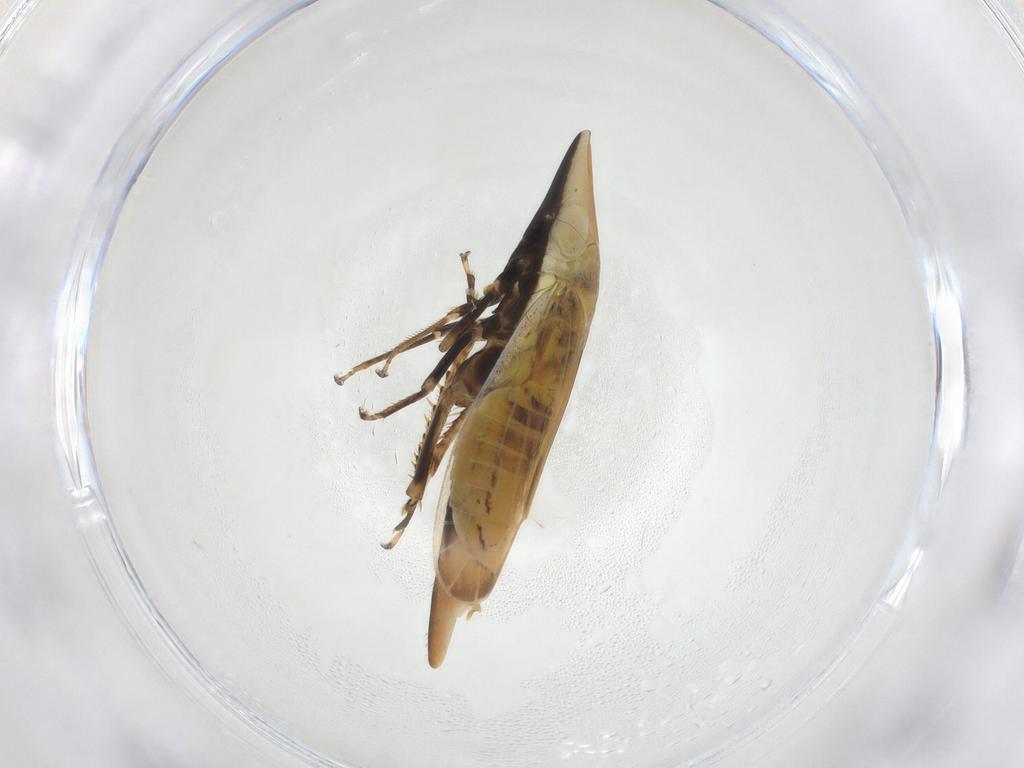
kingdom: Animalia
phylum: Arthropoda
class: Insecta
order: Hemiptera
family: Cicadellidae
